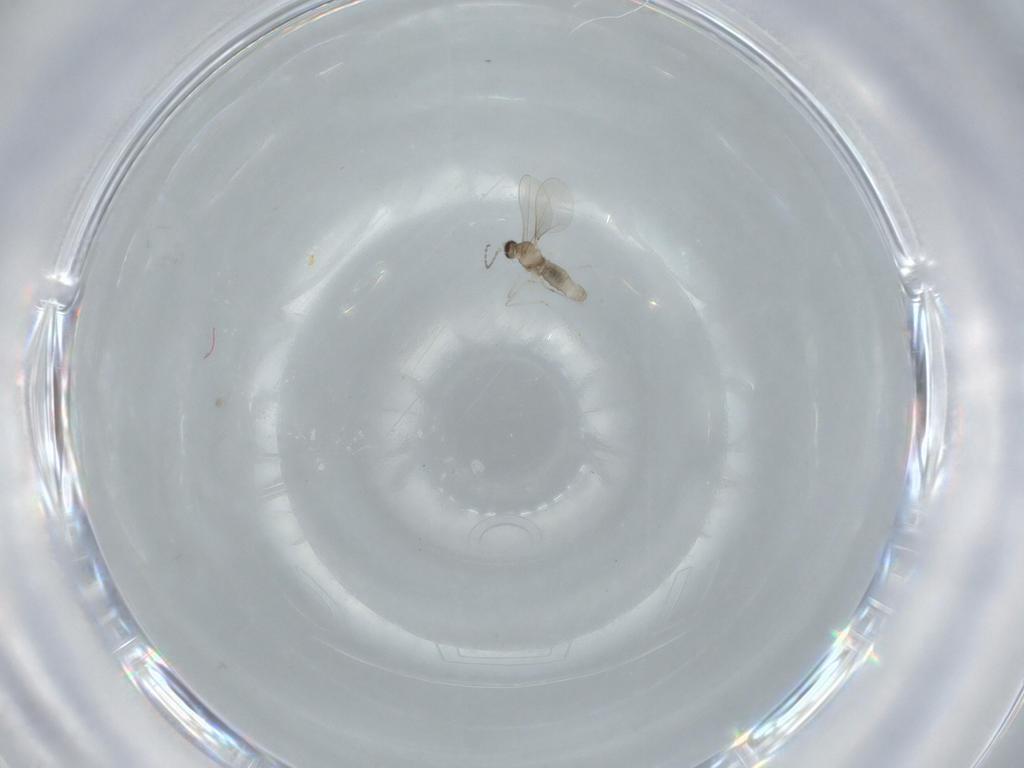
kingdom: Animalia
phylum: Arthropoda
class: Insecta
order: Diptera
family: Cecidomyiidae
